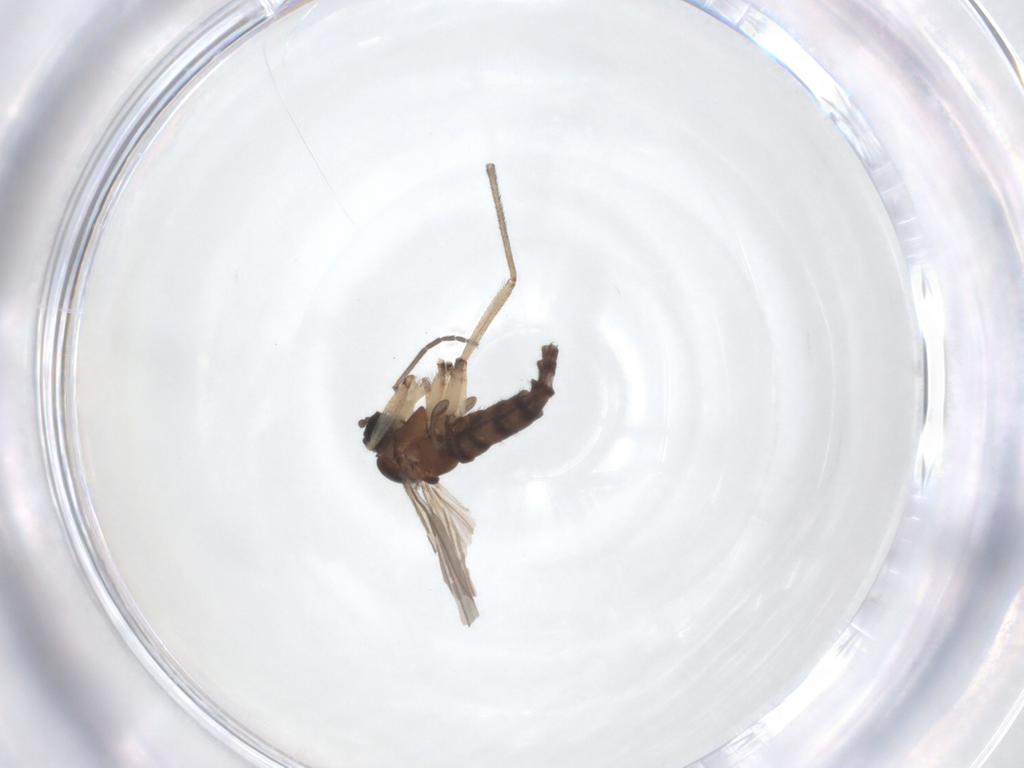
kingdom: Animalia
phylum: Arthropoda
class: Insecta
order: Diptera
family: Sciaridae
